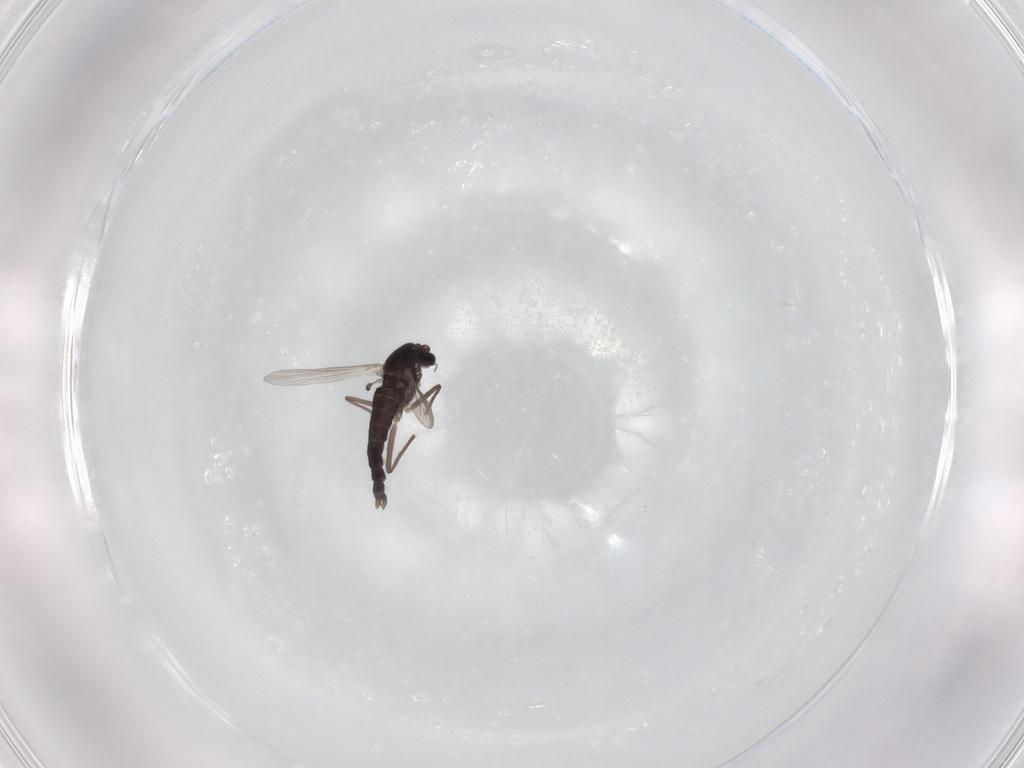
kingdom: Animalia
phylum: Arthropoda
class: Insecta
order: Diptera
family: Chironomidae
